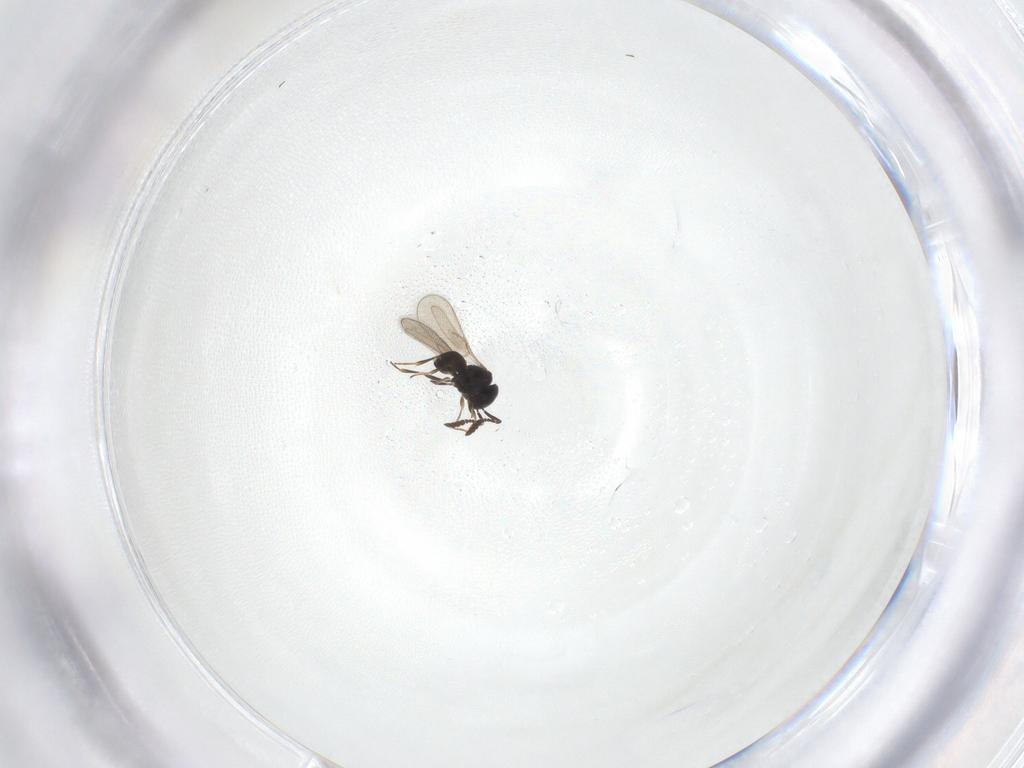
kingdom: Animalia
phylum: Arthropoda
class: Insecta
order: Hymenoptera
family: Scelionidae
